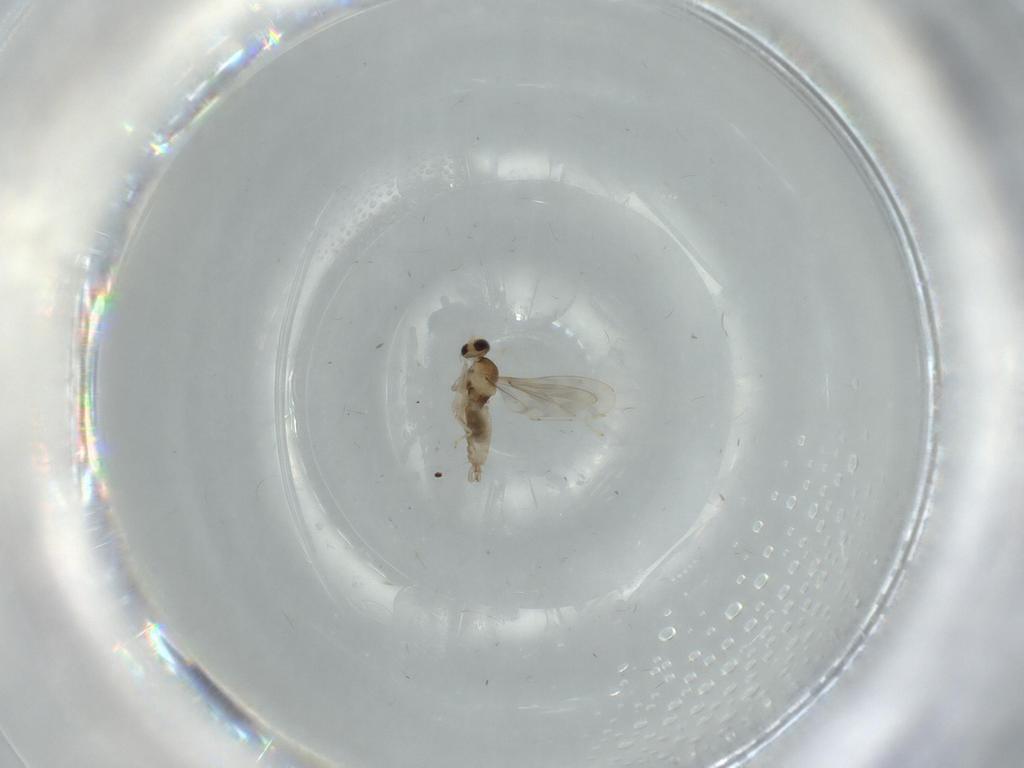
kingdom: Animalia
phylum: Arthropoda
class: Insecta
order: Diptera
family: Cecidomyiidae
